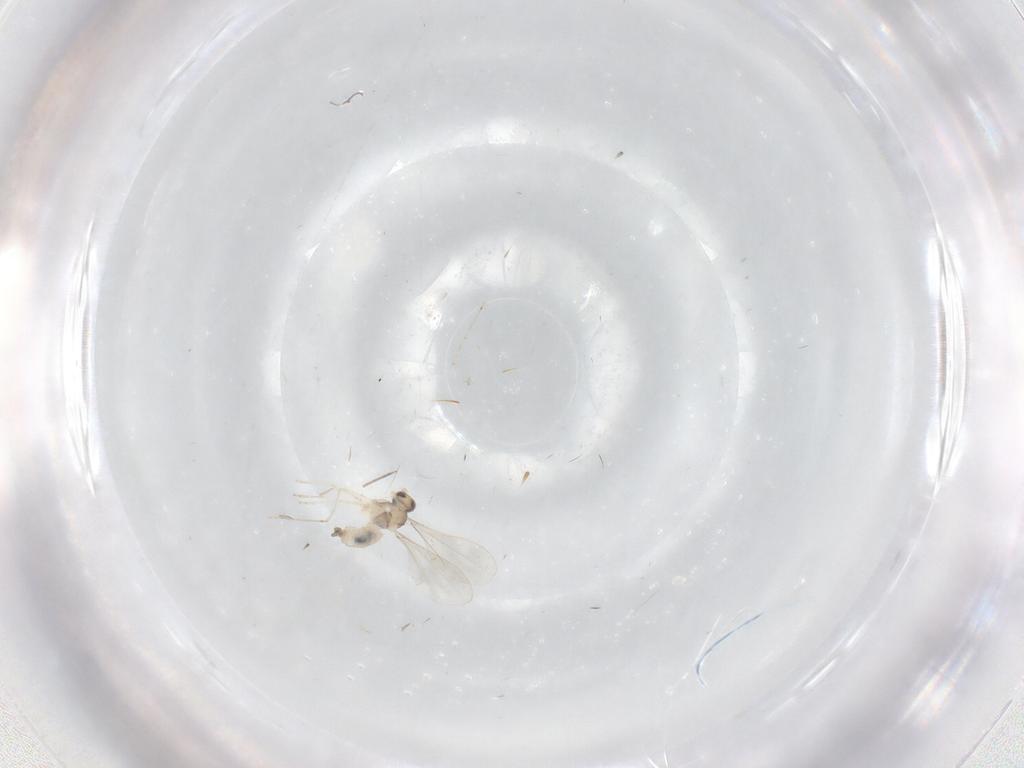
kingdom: Animalia
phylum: Arthropoda
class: Insecta
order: Diptera
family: Cecidomyiidae
